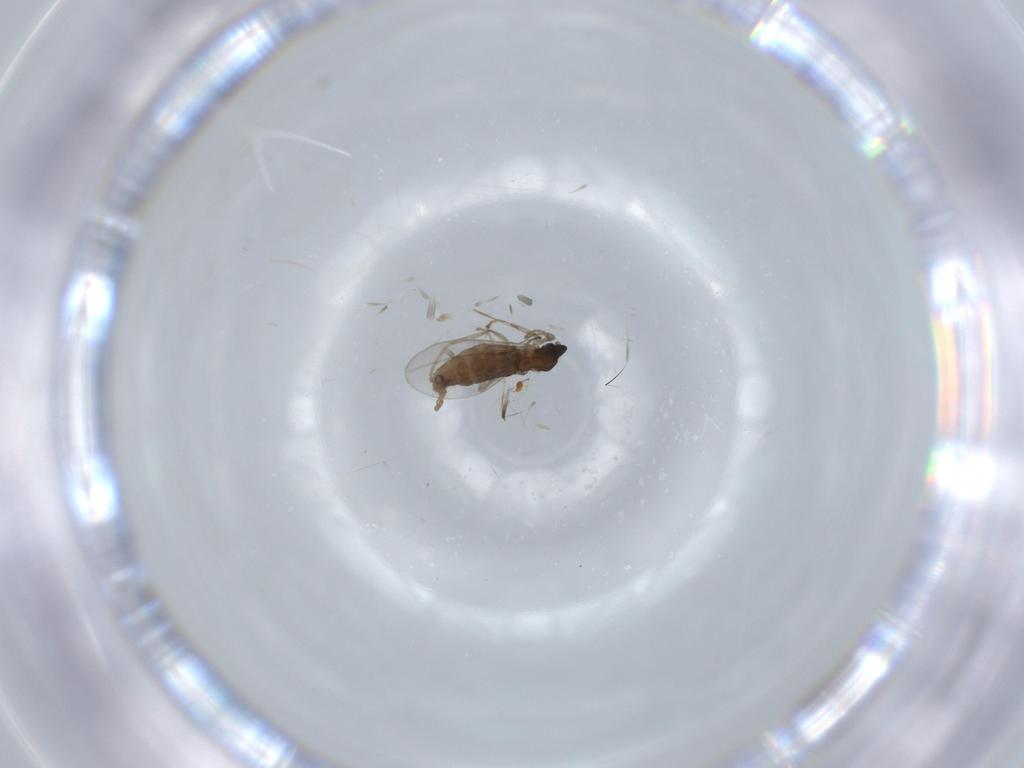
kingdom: Animalia
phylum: Arthropoda
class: Insecta
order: Diptera
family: Cecidomyiidae
